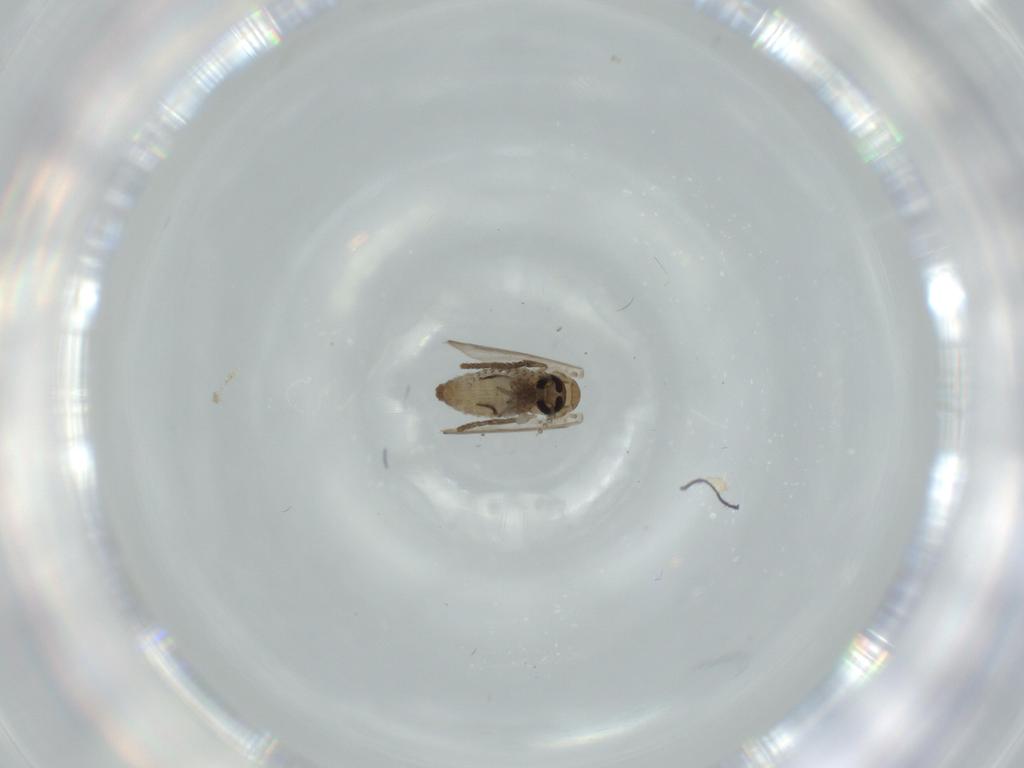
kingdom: Animalia
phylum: Arthropoda
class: Insecta
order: Diptera
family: Psychodidae
